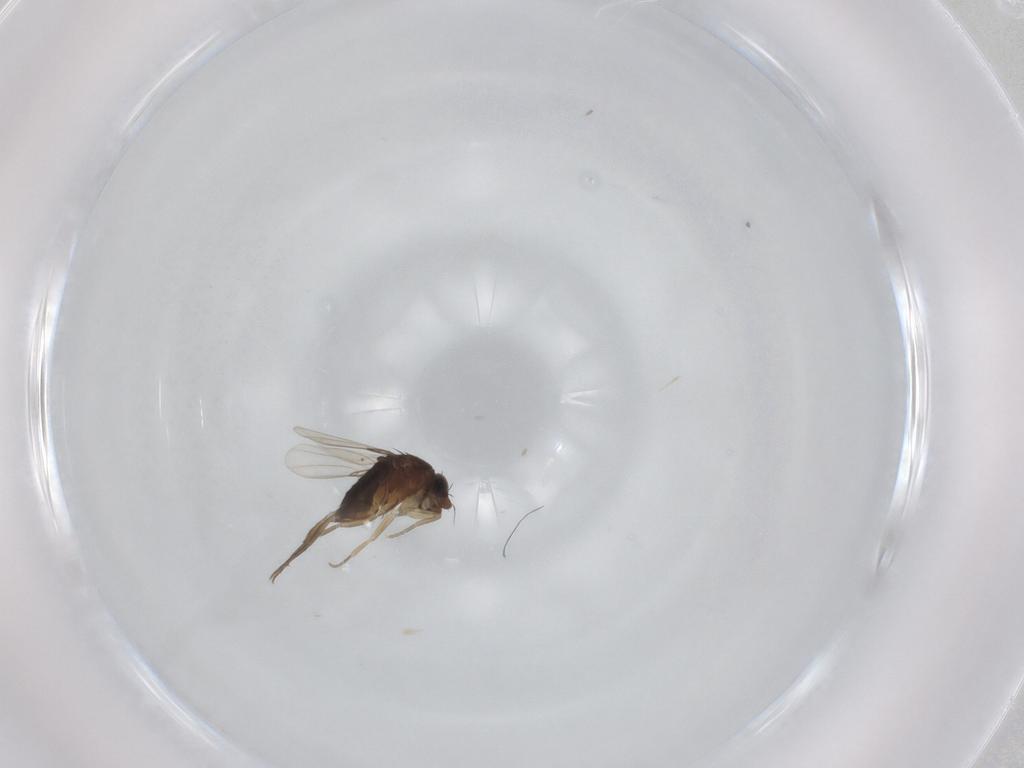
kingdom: Animalia
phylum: Arthropoda
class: Insecta
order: Diptera
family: Phoridae
